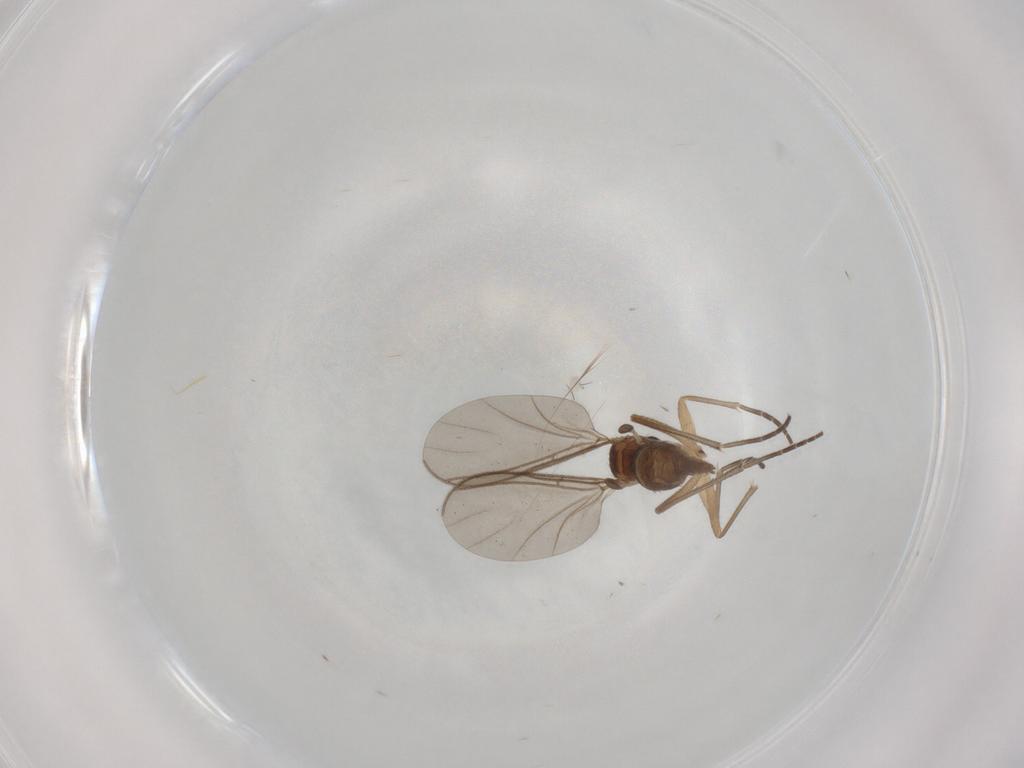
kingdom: Animalia
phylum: Arthropoda
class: Insecta
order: Diptera
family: Sciaridae
